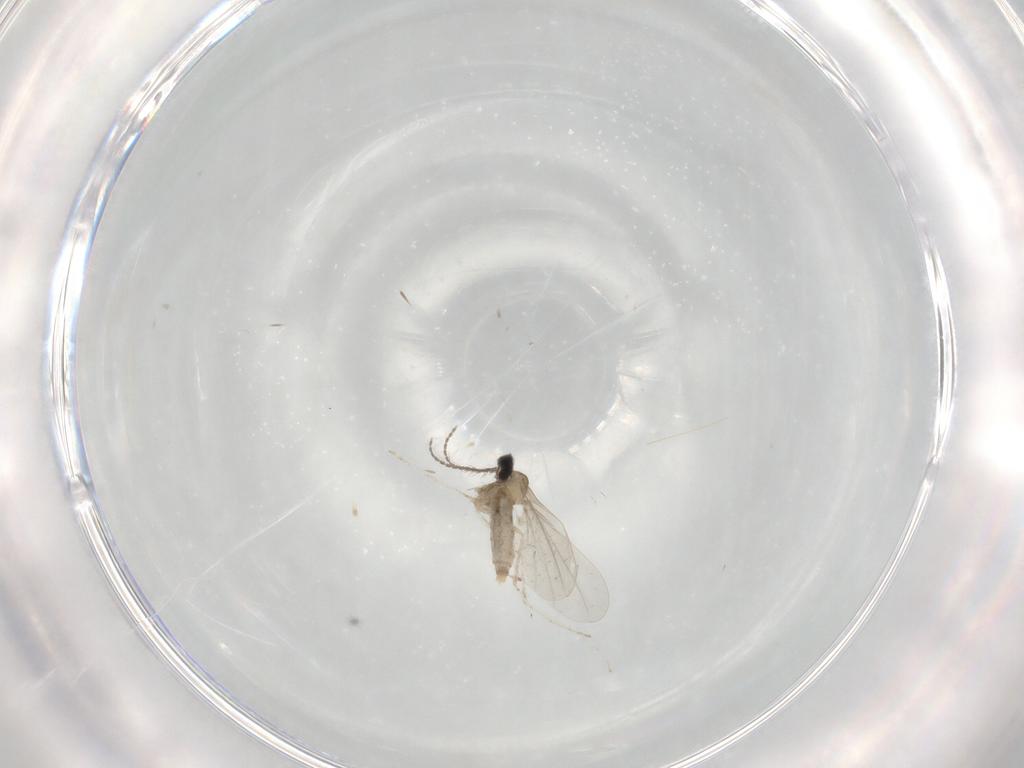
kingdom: Animalia
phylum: Arthropoda
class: Insecta
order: Diptera
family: Cecidomyiidae
